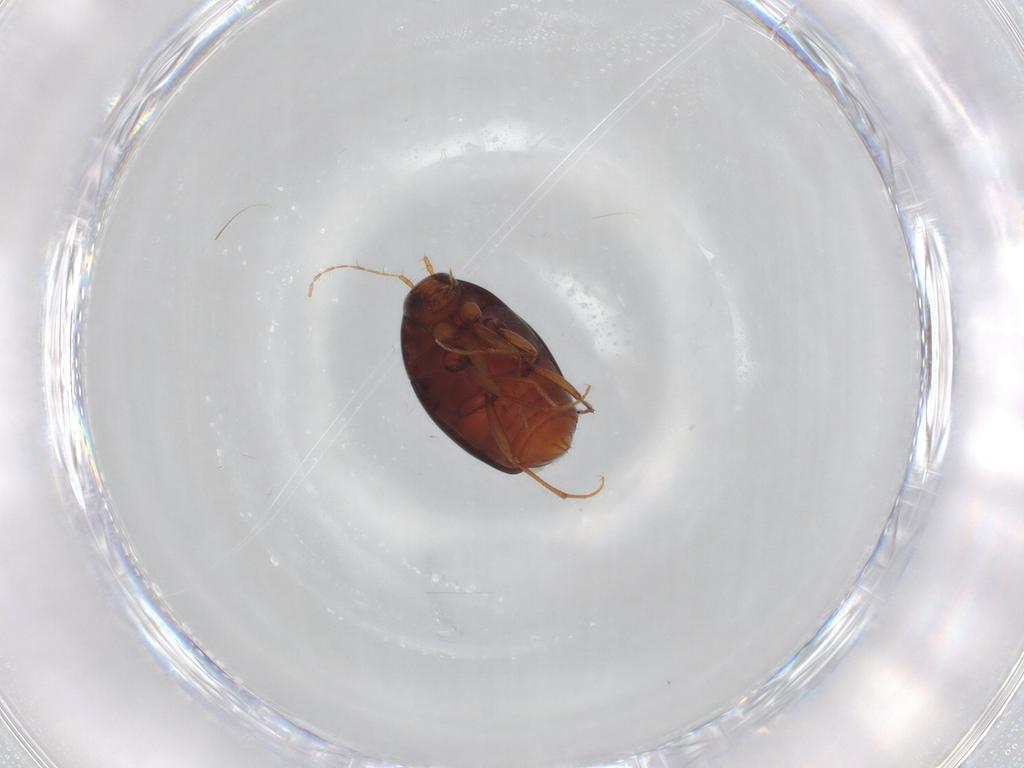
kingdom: Animalia
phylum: Arthropoda
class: Insecta
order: Coleoptera
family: Staphylinidae
